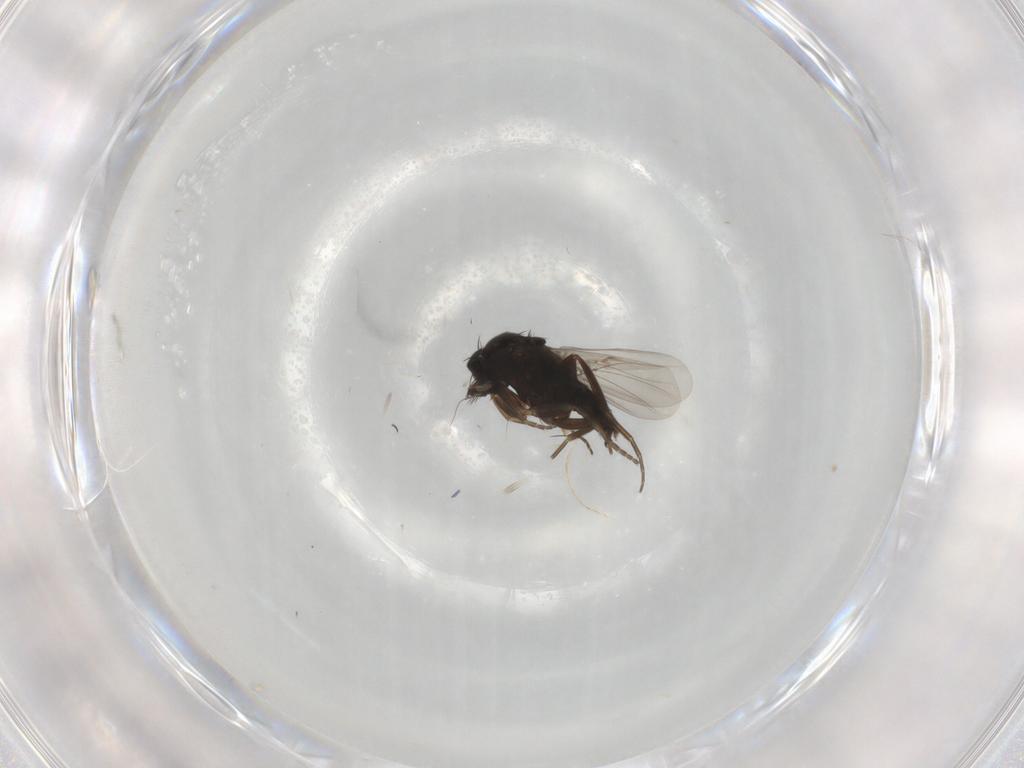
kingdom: Animalia
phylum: Arthropoda
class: Insecta
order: Diptera
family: Phoridae
